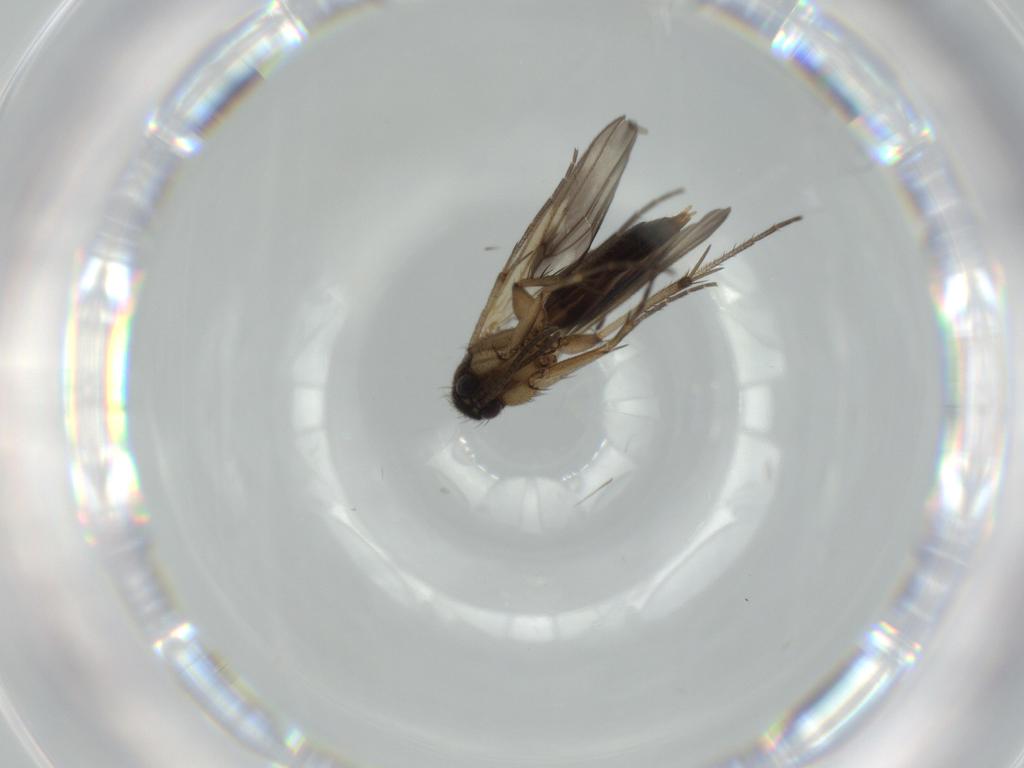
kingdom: Animalia
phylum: Arthropoda
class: Insecta
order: Diptera
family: Syrphidae
